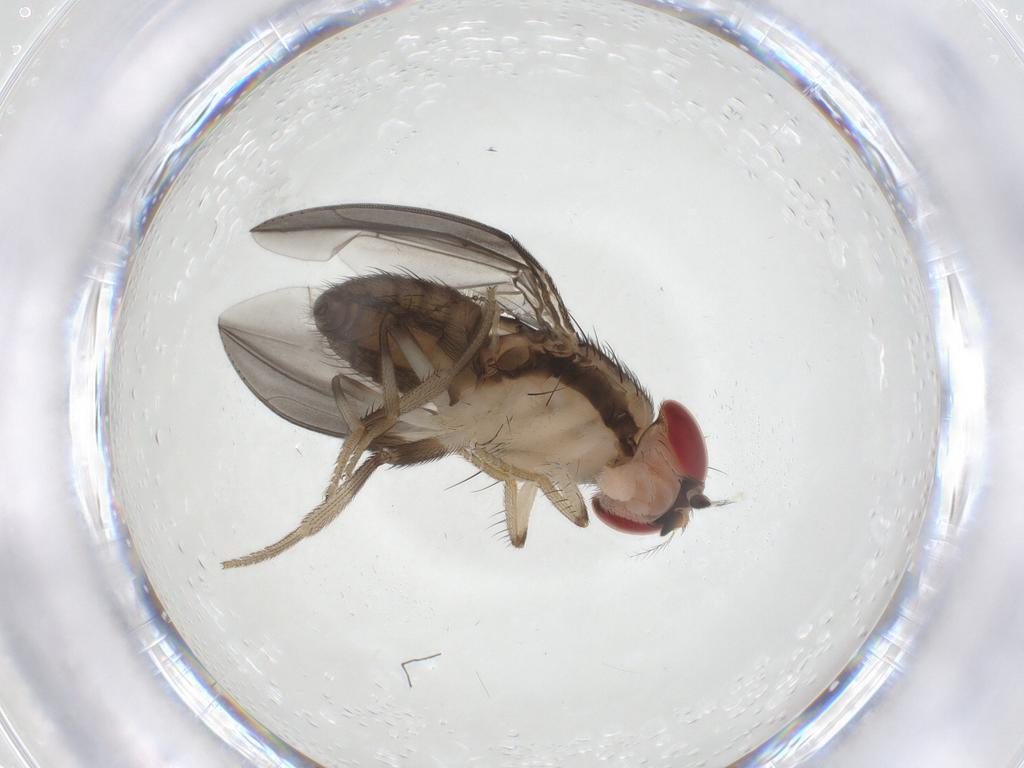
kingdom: Animalia
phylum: Arthropoda
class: Insecta
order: Diptera
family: Drosophilidae
